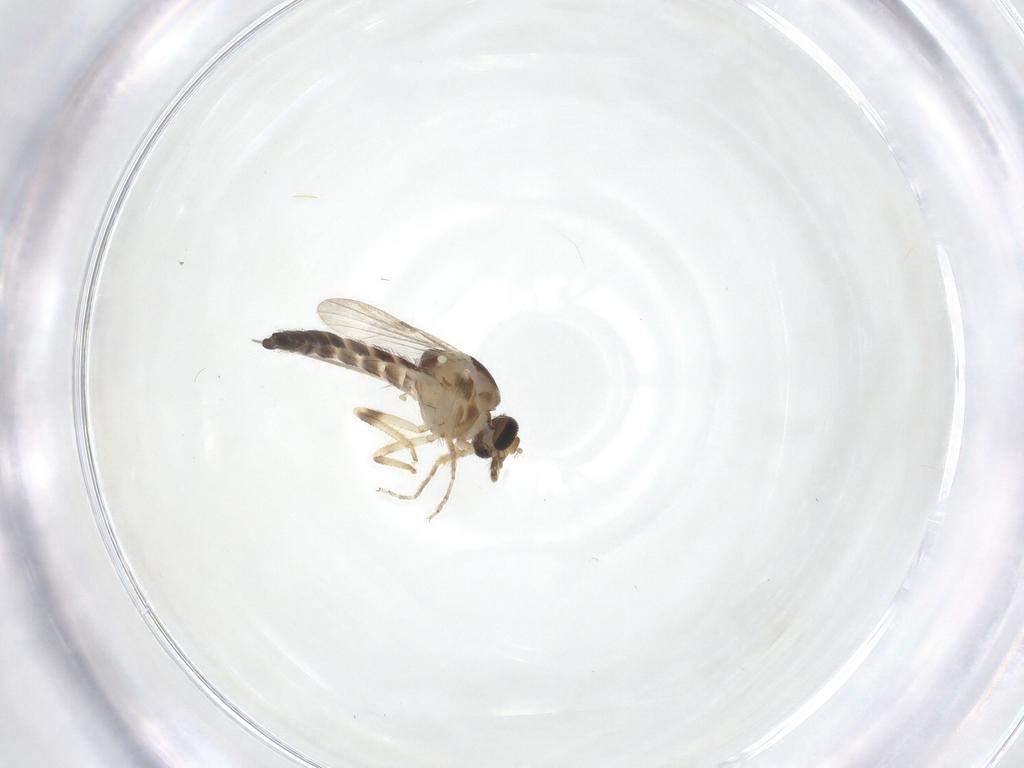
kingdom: Animalia
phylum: Arthropoda
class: Insecta
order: Diptera
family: Ceratopogonidae
